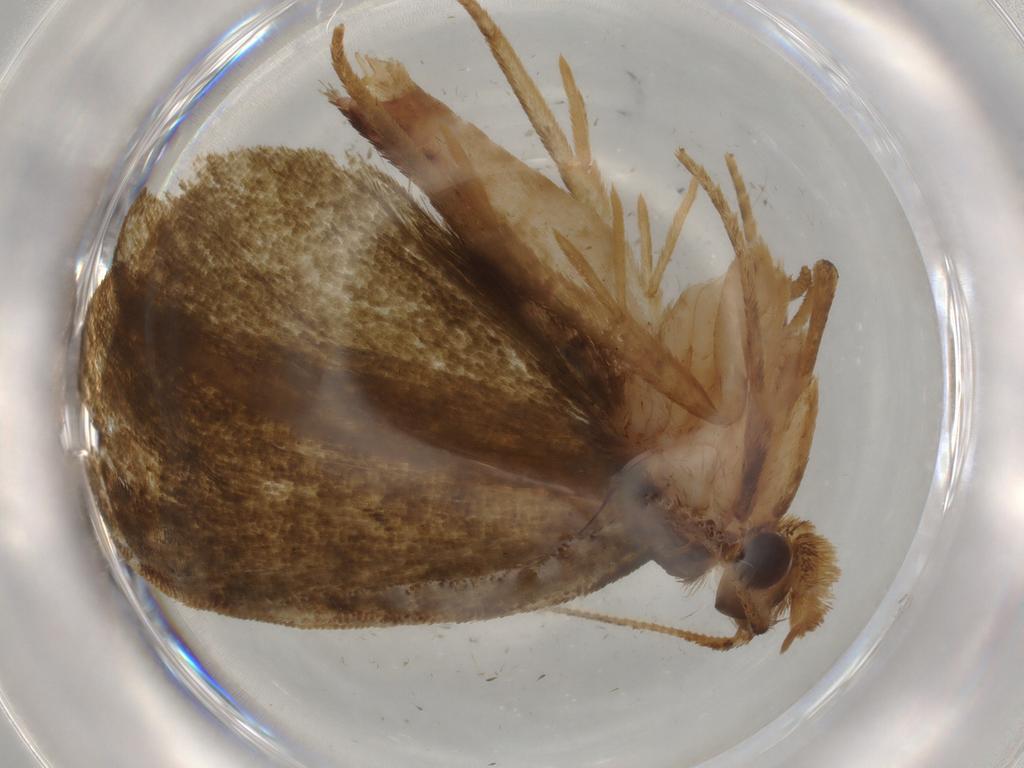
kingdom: Animalia
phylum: Arthropoda
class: Insecta
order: Lepidoptera
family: Geometridae
